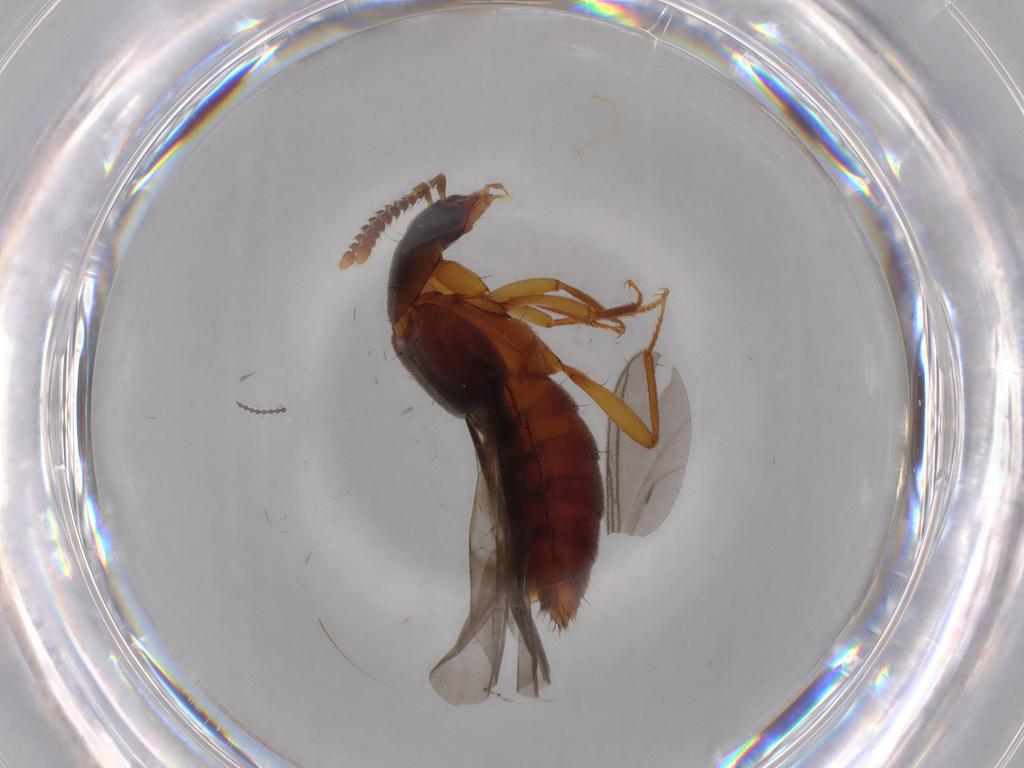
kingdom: Animalia
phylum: Arthropoda
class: Insecta
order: Coleoptera
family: Staphylinidae
